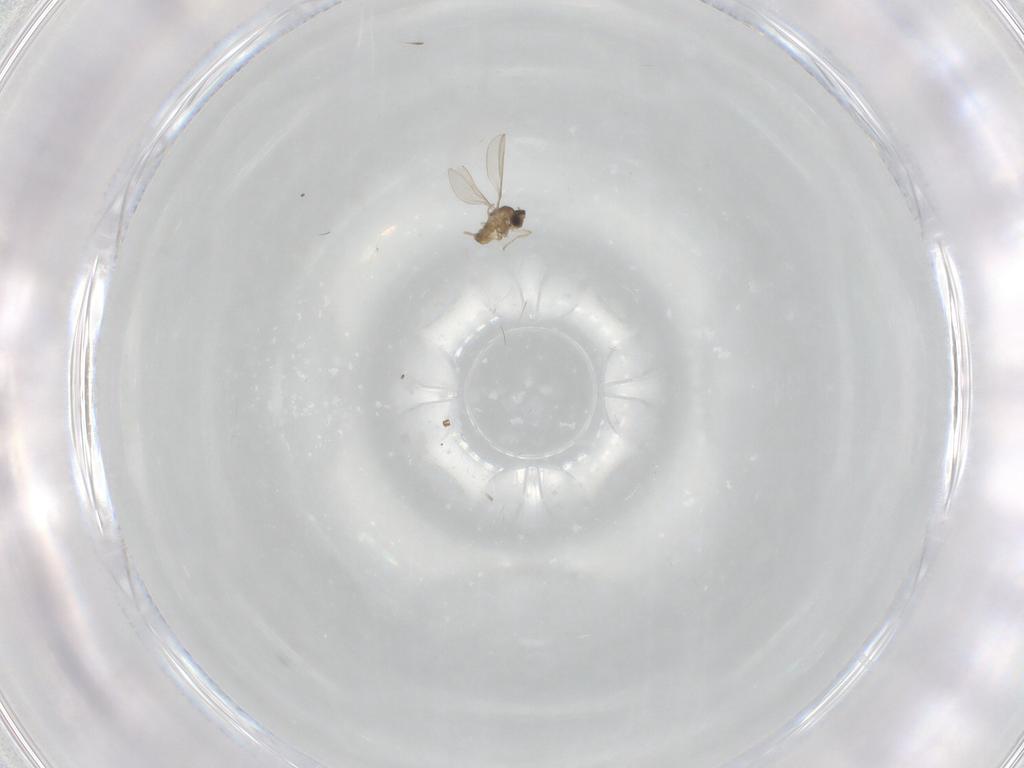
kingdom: Animalia
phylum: Arthropoda
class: Insecta
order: Diptera
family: Cecidomyiidae
